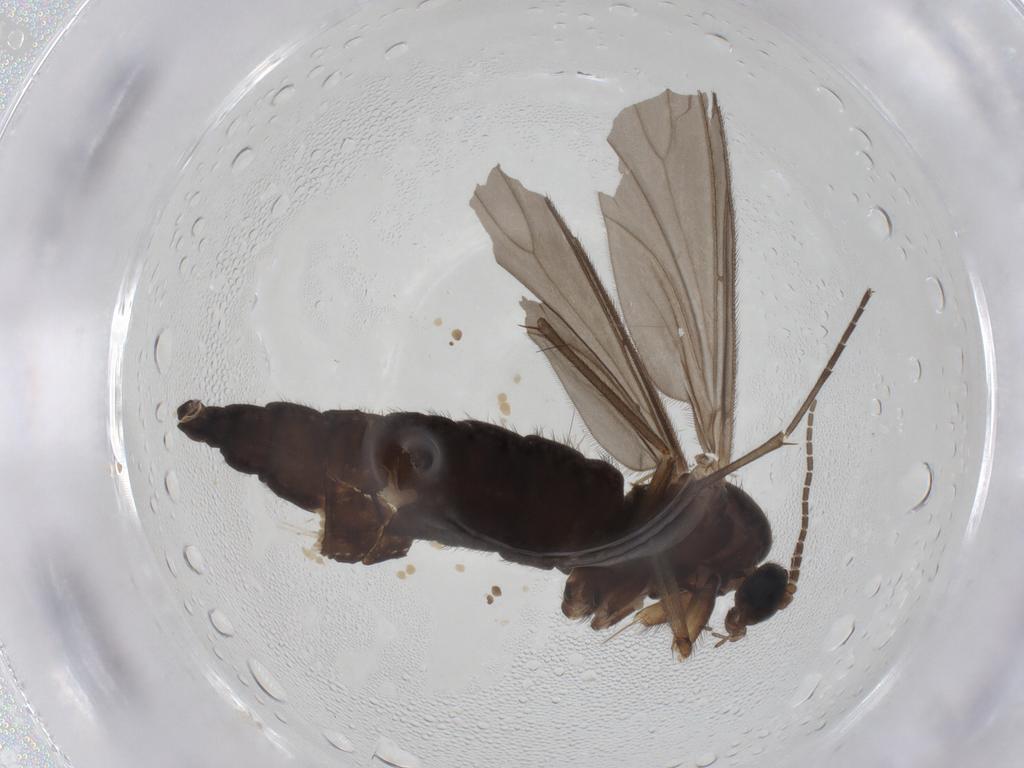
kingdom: Animalia
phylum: Arthropoda
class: Insecta
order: Diptera
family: Sciaridae
